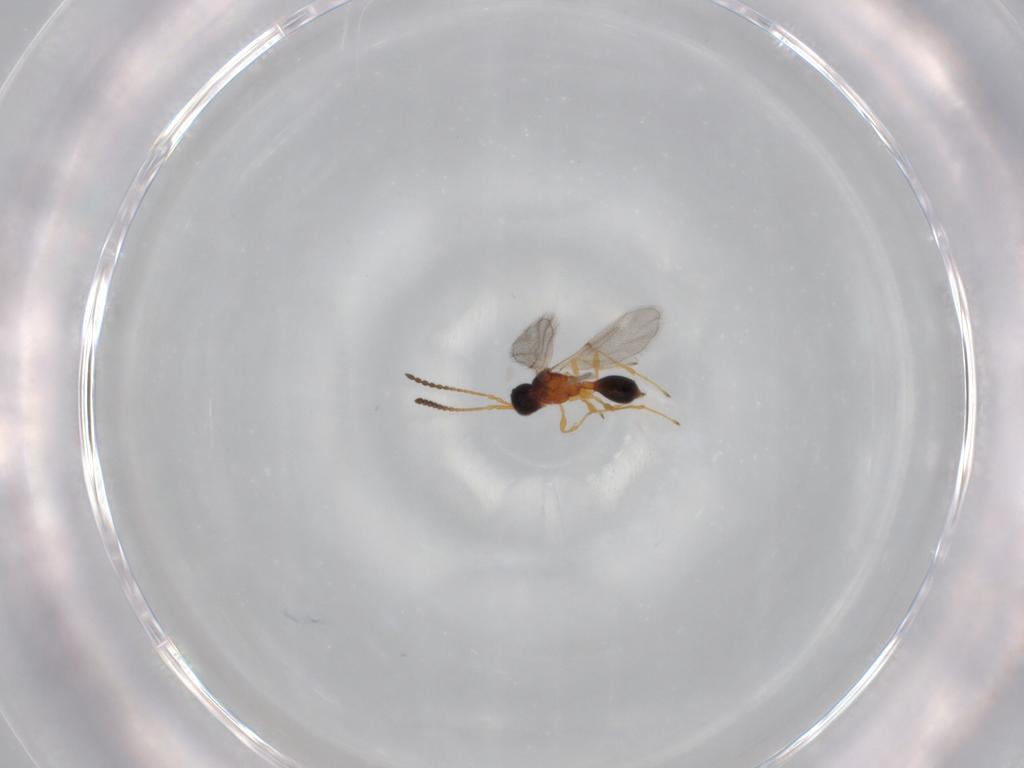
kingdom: Animalia
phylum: Arthropoda
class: Insecta
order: Hymenoptera
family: Diapriidae
